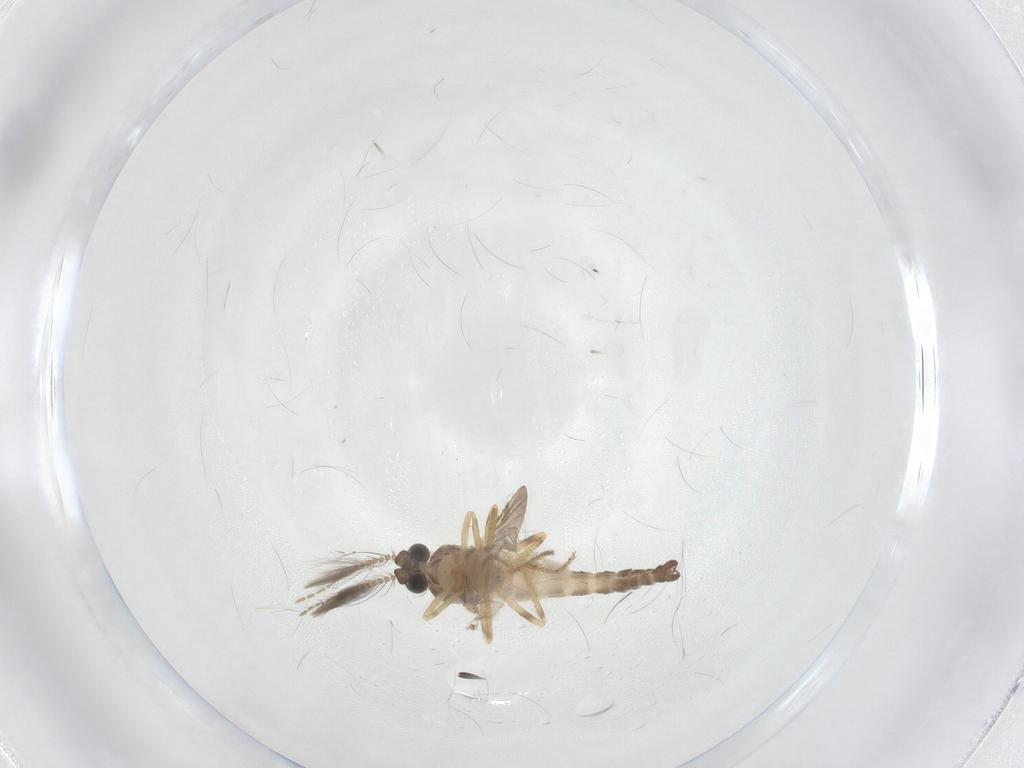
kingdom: Animalia
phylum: Arthropoda
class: Insecta
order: Diptera
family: Ceratopogonidae
